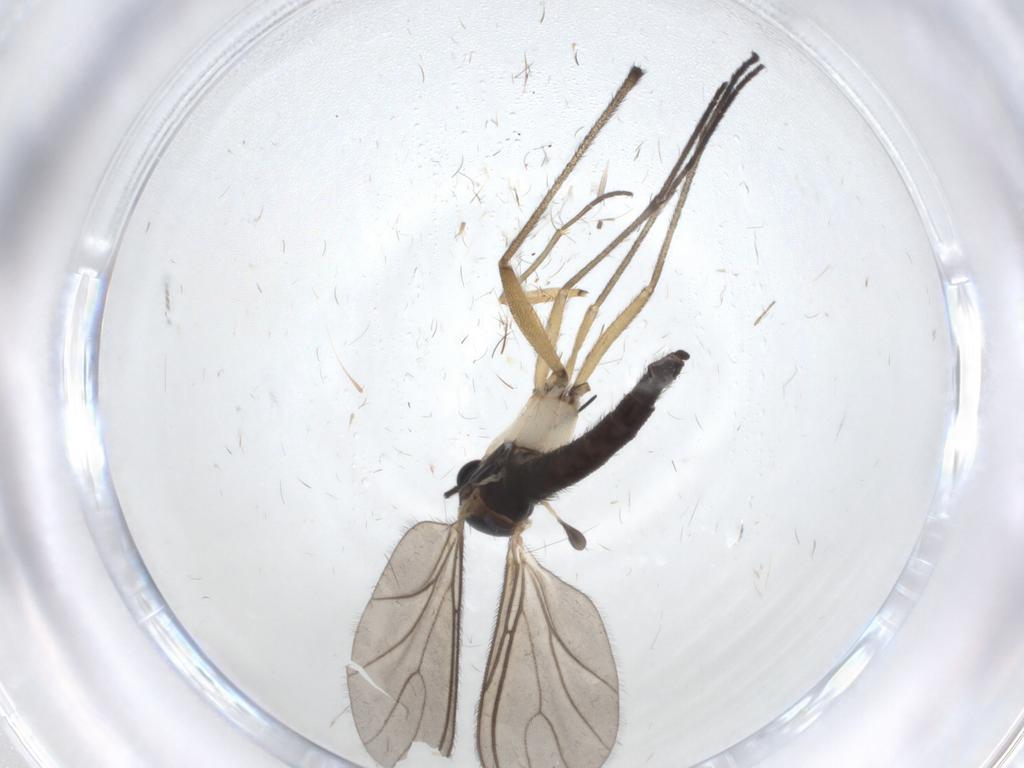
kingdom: Animalia
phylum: Arthropoda
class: Insecta
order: Diptera
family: Sciaridae
